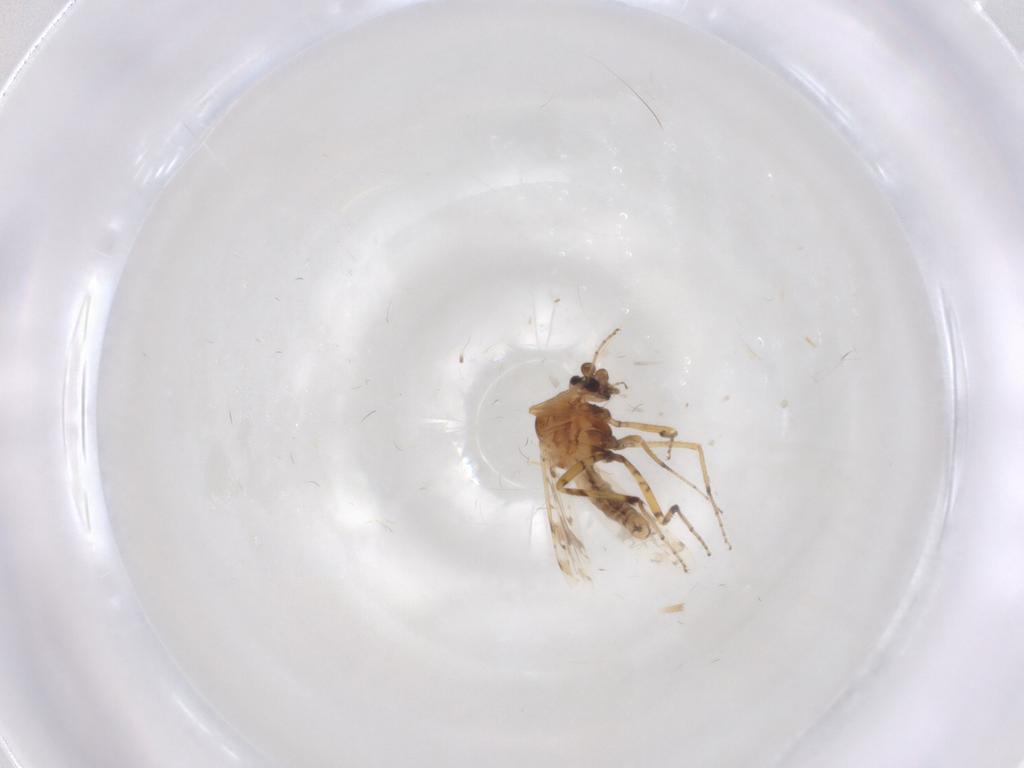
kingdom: Animalia
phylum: Arthropoda
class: Insecta
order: Diptera
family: Ceratopogonidae
